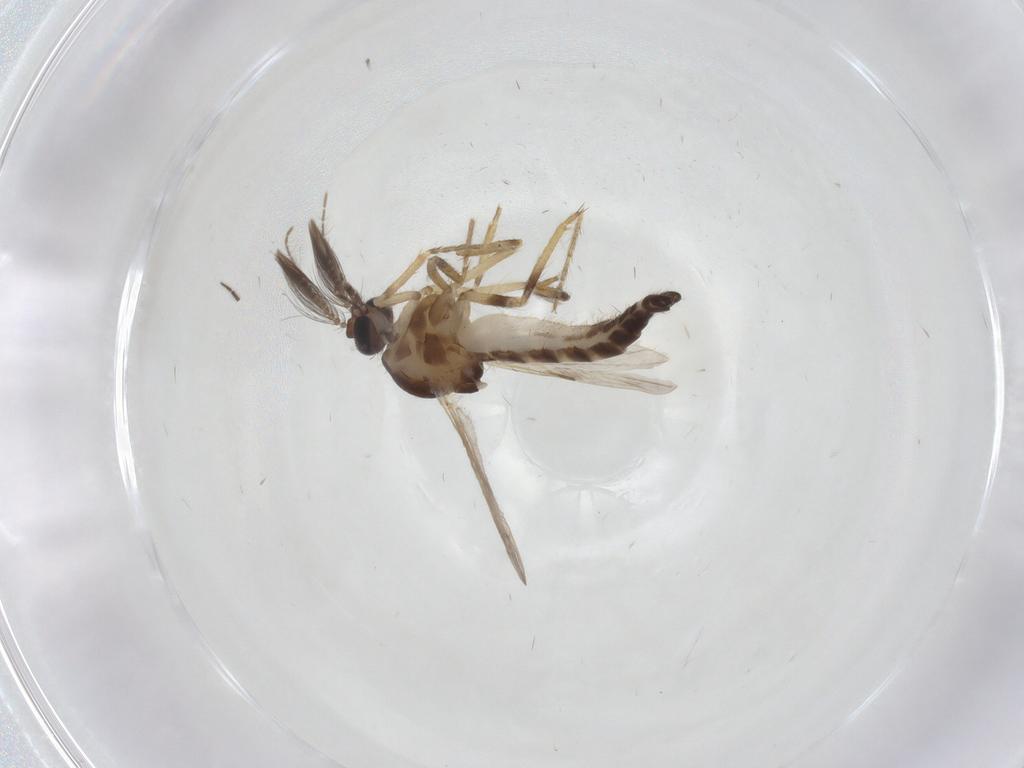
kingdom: Animalia
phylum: Arthropoda
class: Insecta
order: Diptera
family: Ceratopogonidae
